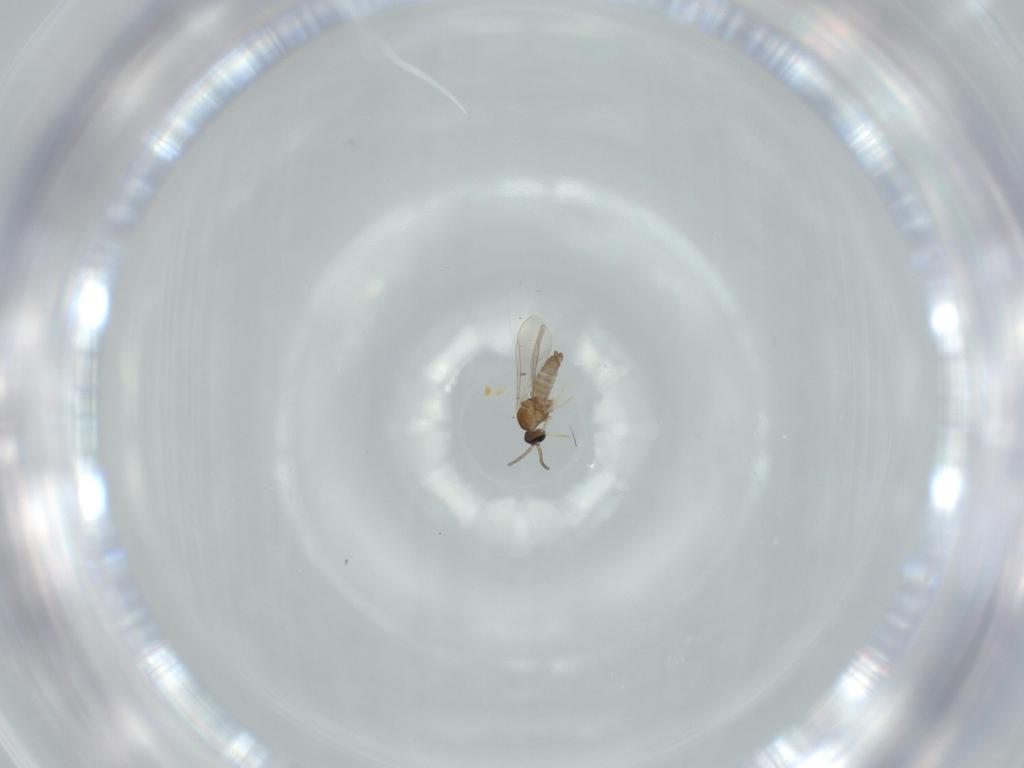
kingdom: Animalia
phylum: Arthropoda
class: Insecta
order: Diptera
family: Cecidomyiidae
